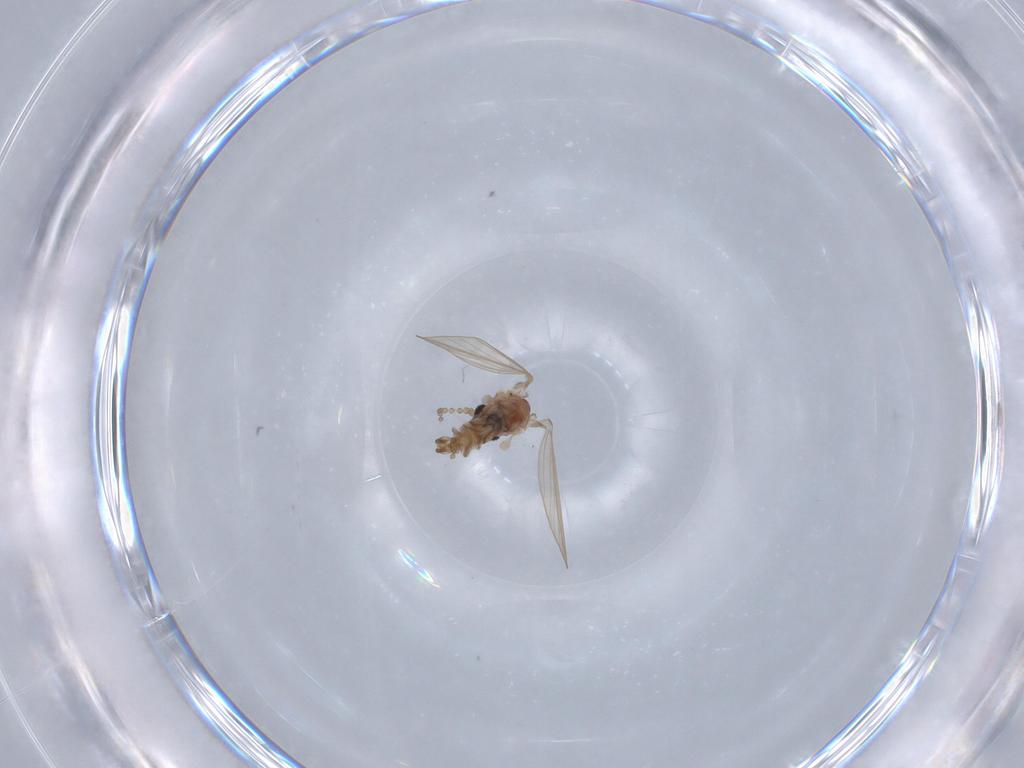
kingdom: Animalia
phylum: Arthropoda
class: Insecta
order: Diptera
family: Psychodidae
